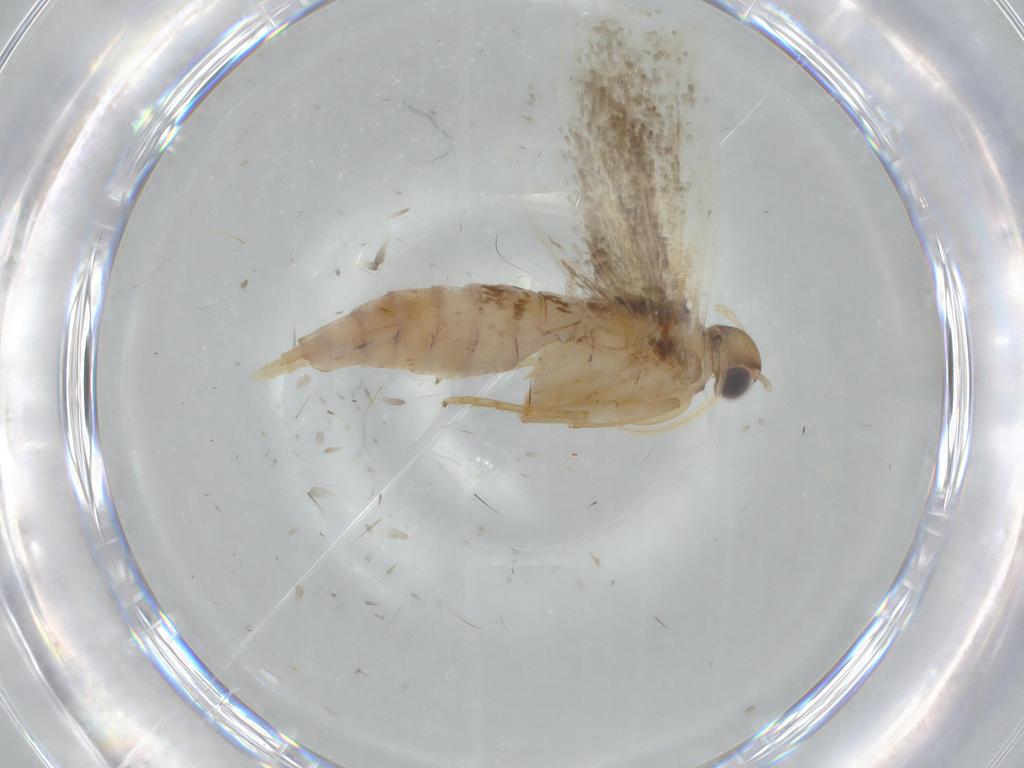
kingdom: Animalia
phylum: Arthropoda
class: Insecta
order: Lepidoptera
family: Gelechiidae
